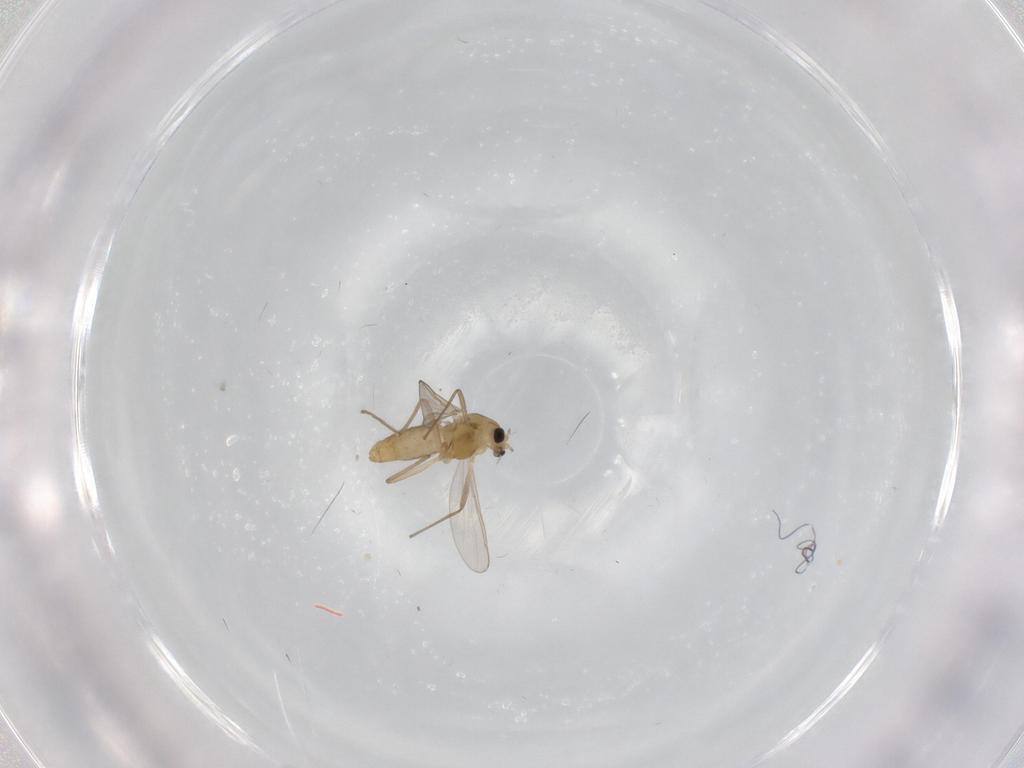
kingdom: Animalia
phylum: Arthropoda
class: Insecta
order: Diptera
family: Chironomidae
